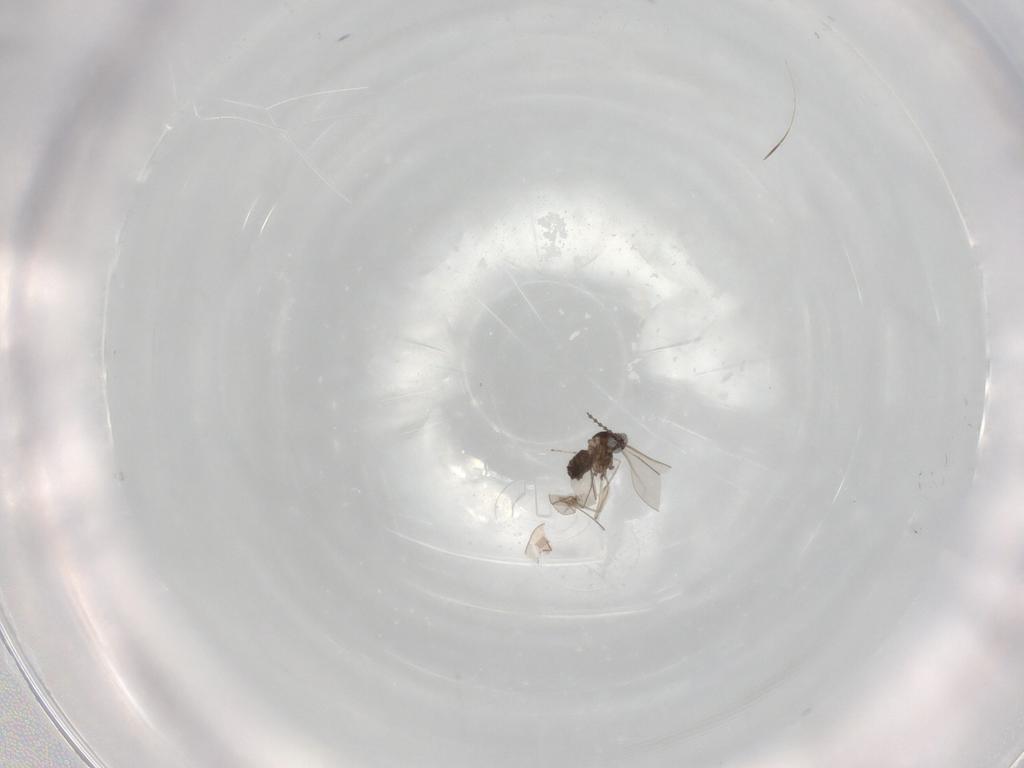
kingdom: Animalia
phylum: Arthropoda
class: Insecta
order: Diptera
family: Cecidomyiidae
